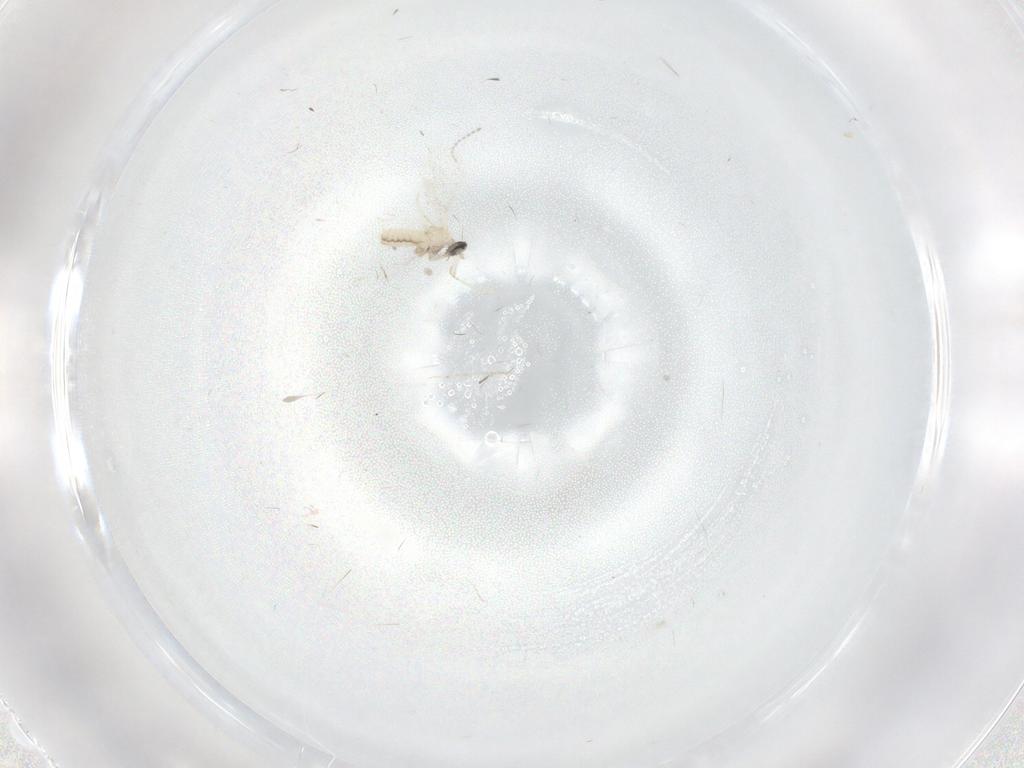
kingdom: Animalia
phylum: Arthropoda
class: Insecta
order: Diptera
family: Cecidomyiidae
